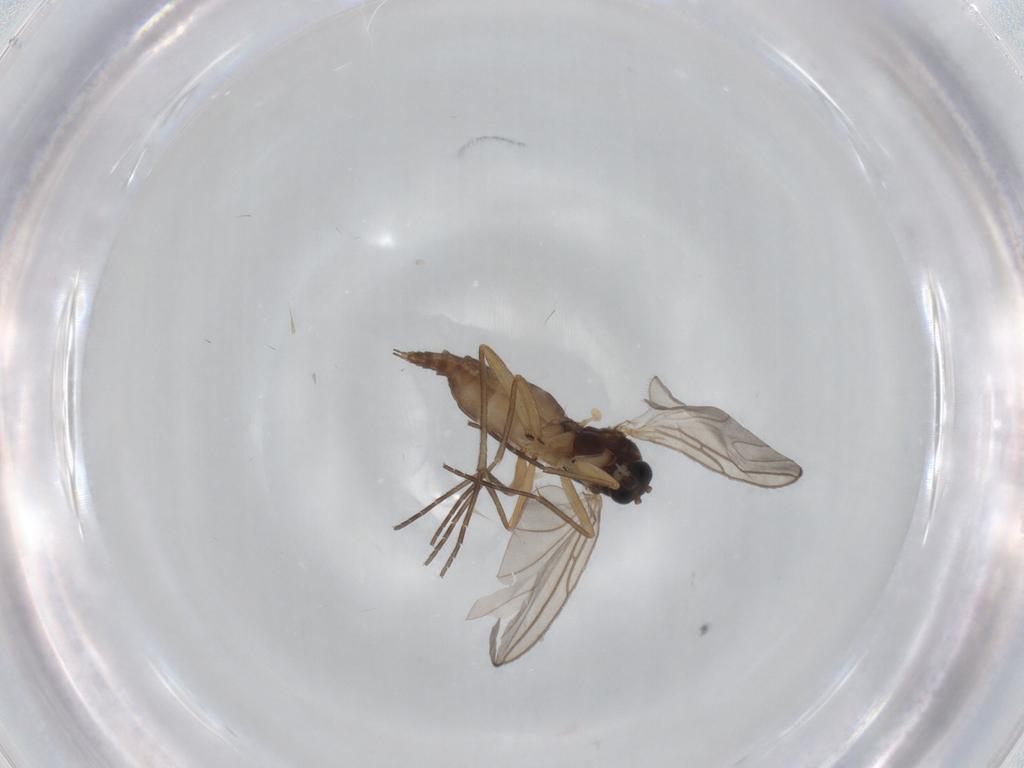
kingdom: Animalia
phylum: Arthropoda
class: Insecta
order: Diptera
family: Sciaridae
